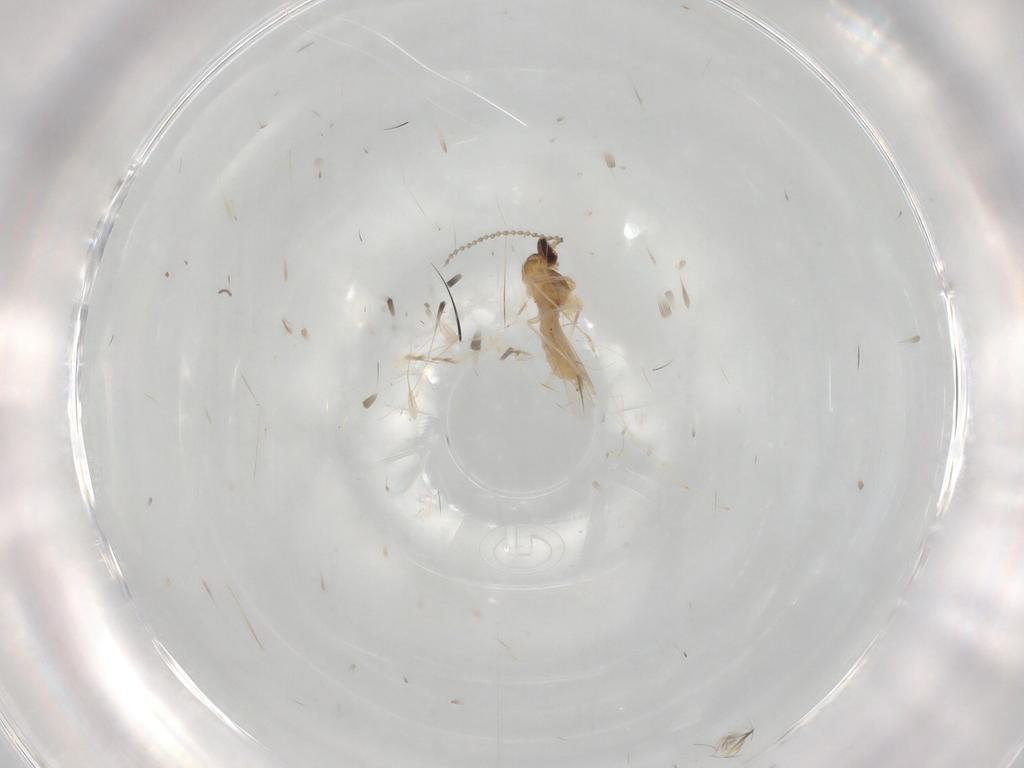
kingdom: Animalia
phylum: Arthropoda
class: Insecta
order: Diptera
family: Cecidomyiidae
